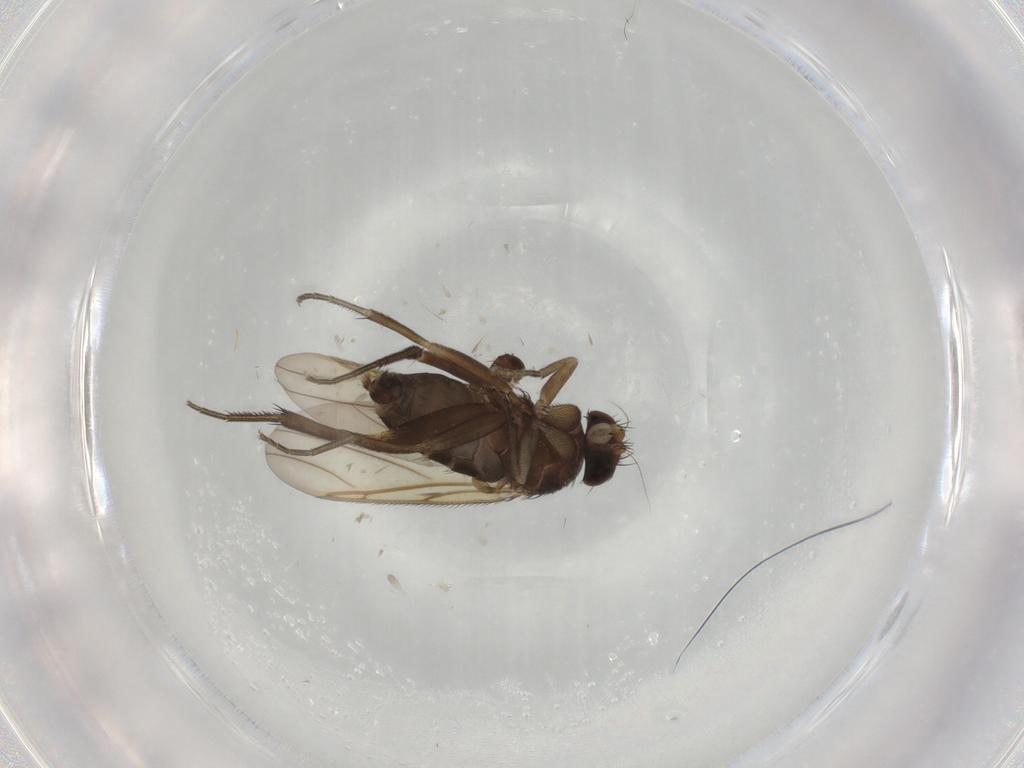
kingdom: Animalia
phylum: Arthropoda
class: Insecta
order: Diptera
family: Phoridae
